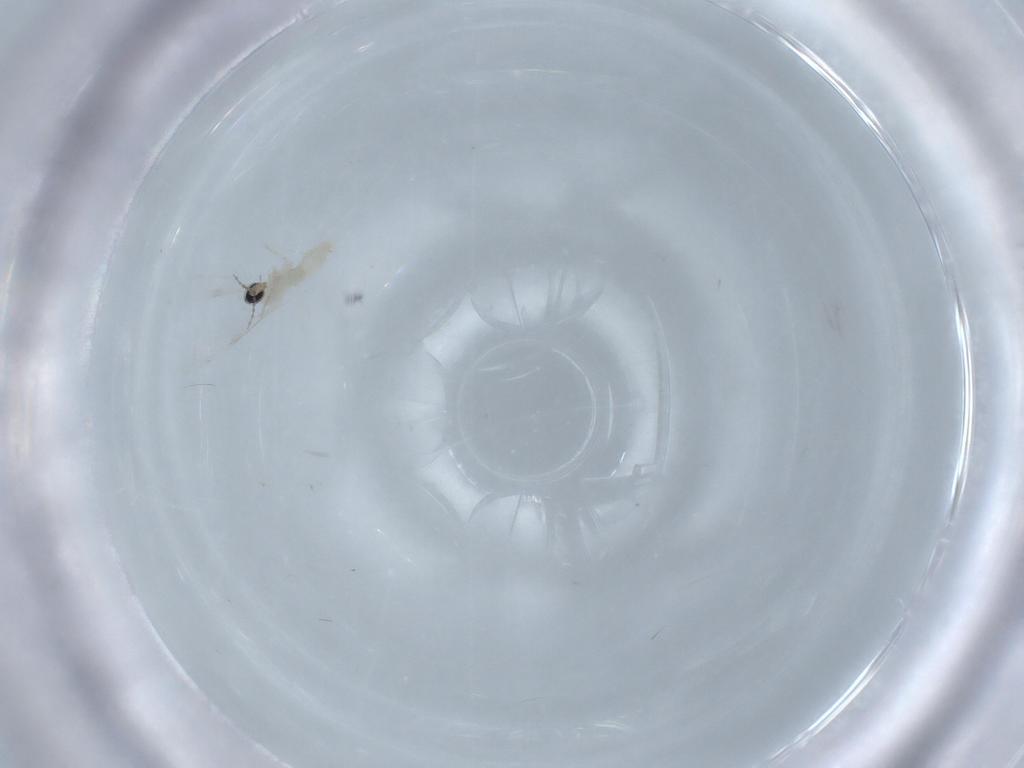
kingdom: Animalia
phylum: Arthropoda
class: Insecta
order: Diptera
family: Cecidomyiidae
